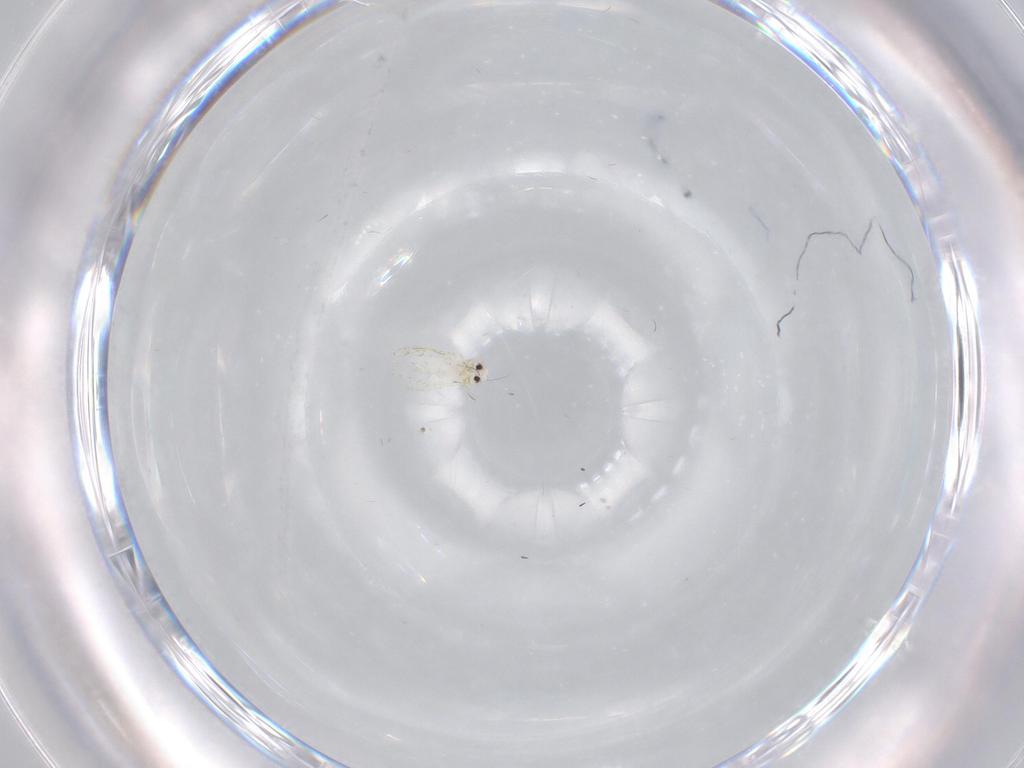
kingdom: Animalia
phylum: Arthropoda
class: Insecta
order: Hemiptera
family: Aleyrodidae
